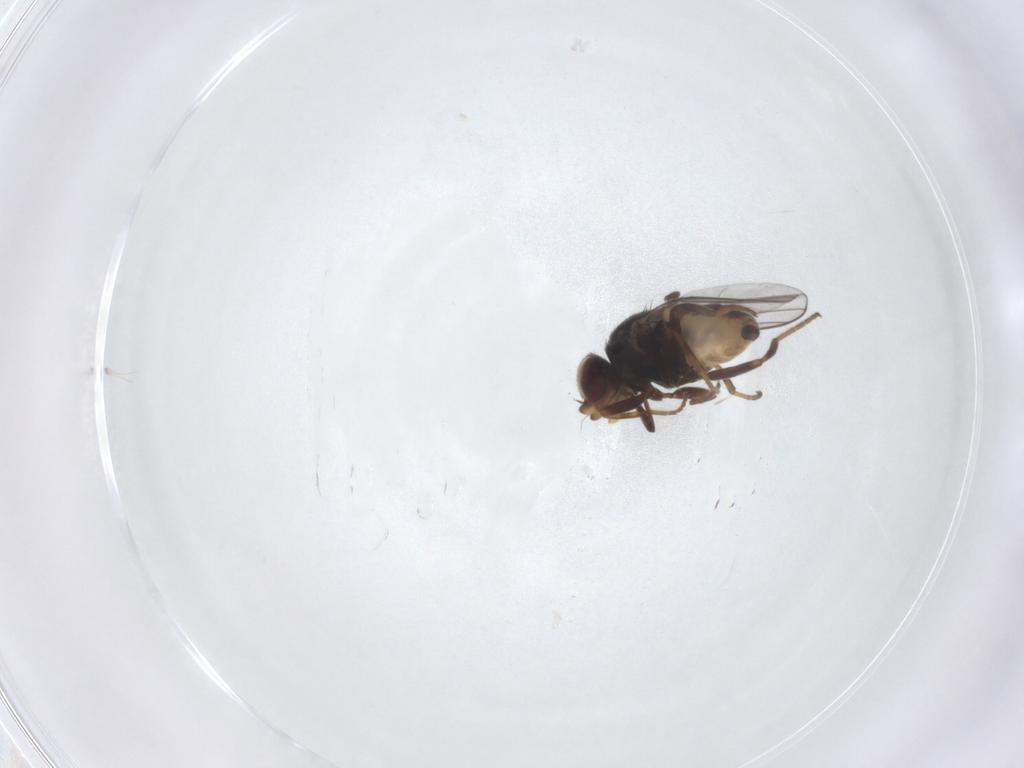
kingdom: Animalia
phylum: Arthropoda
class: Insecta
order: Diptera
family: Chloropidae
